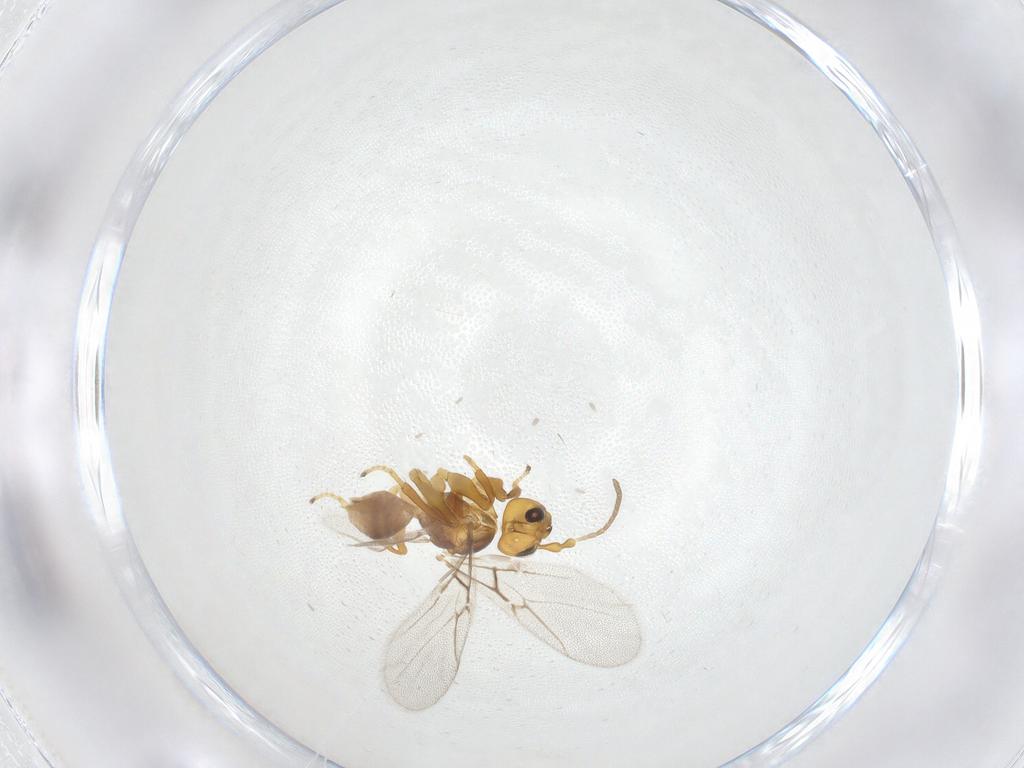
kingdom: Animalia
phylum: Arthropoda
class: Insecta
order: Hymenoptera
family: Cynipidae
